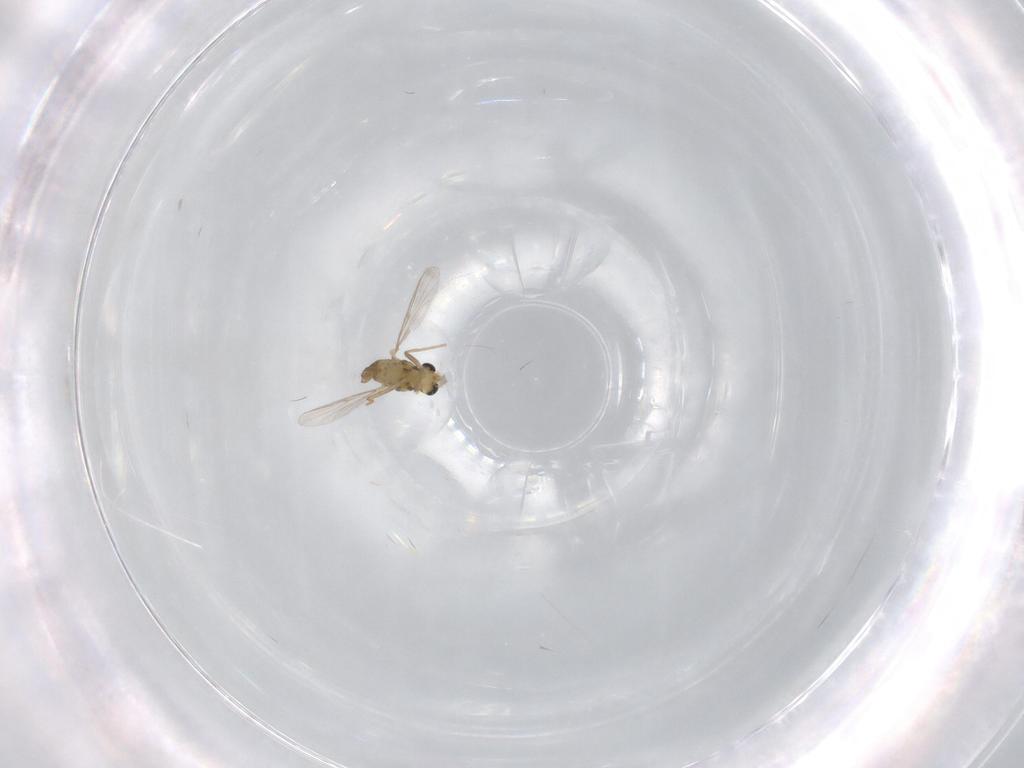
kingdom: Animalia
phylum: Arthropoda
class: Insecta
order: Diptera
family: Chironomidae
